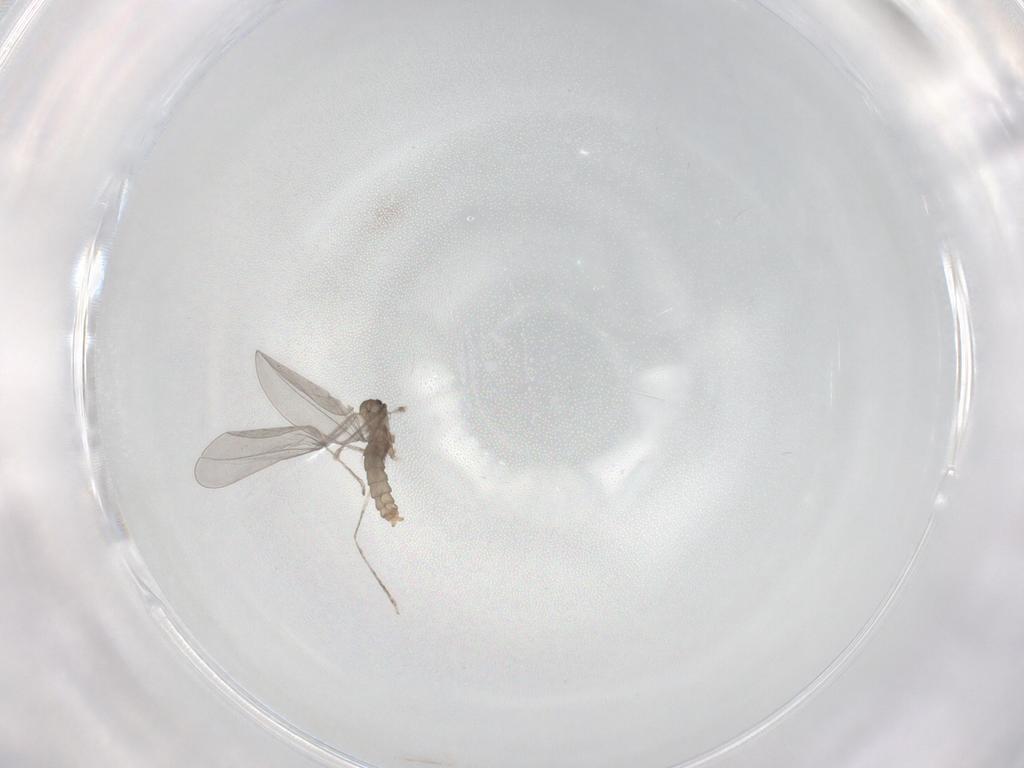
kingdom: Animalia
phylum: Arthropoda
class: Insecta
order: Diptera
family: Cecidomyiidae
